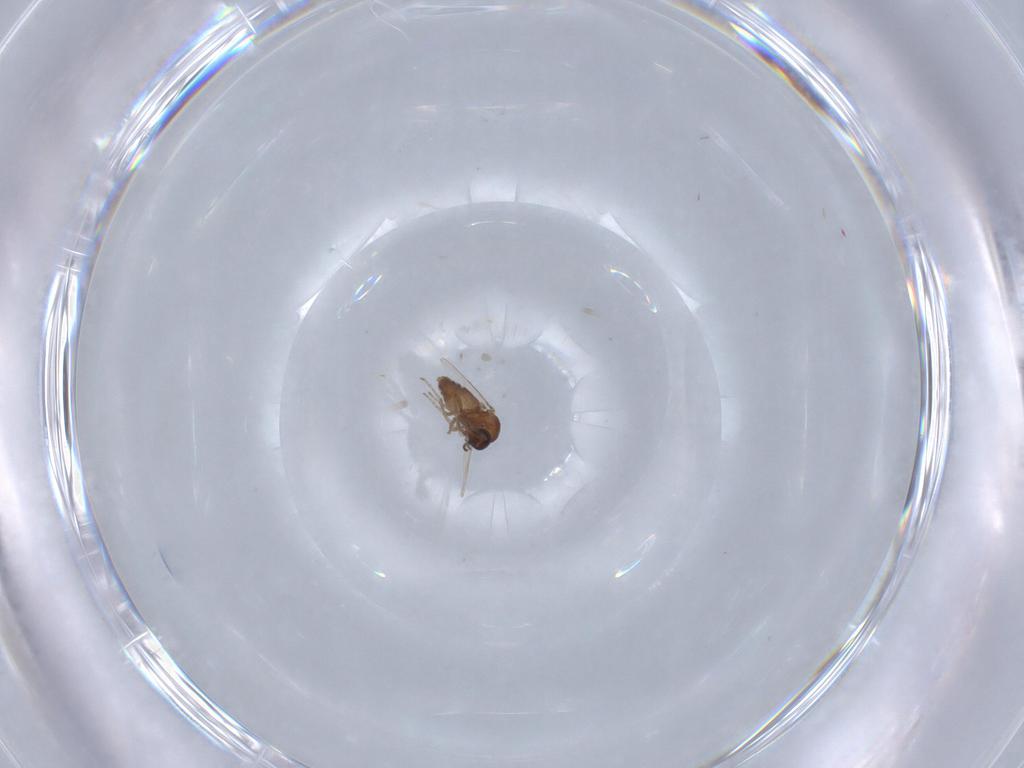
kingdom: Animalia
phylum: Arthropoda
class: Insecta
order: Diptera
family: Ceratopogonidae
